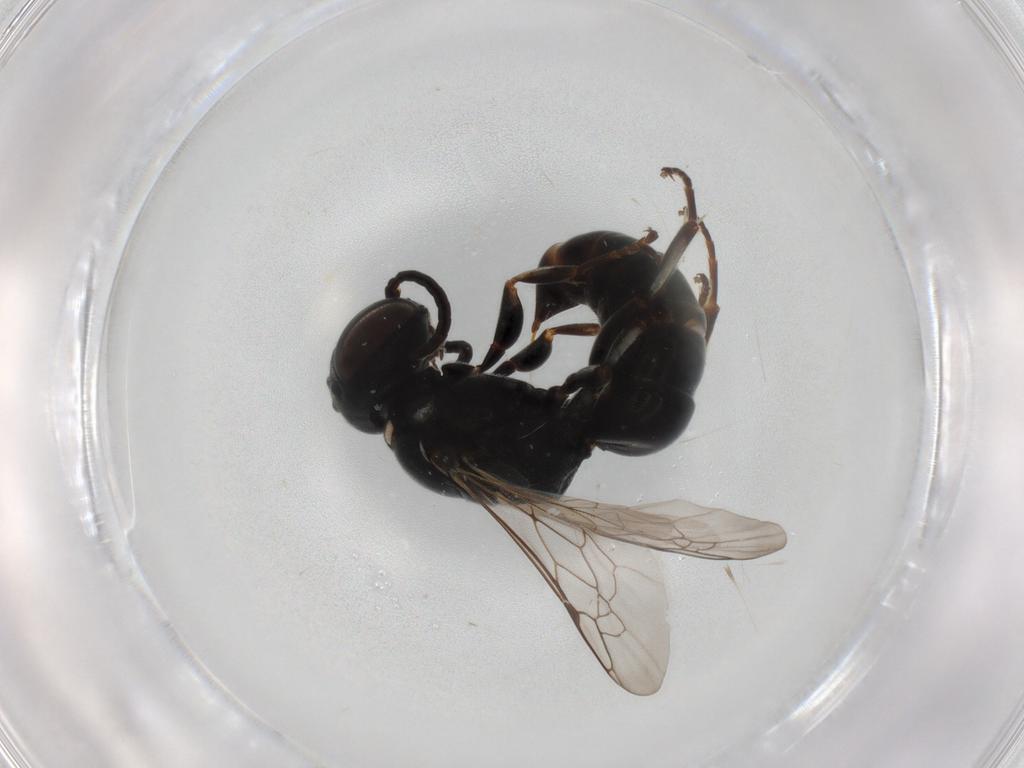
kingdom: Animalia
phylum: Arthropoda
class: Insecta
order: Hymenoptera
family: Crabronidae
